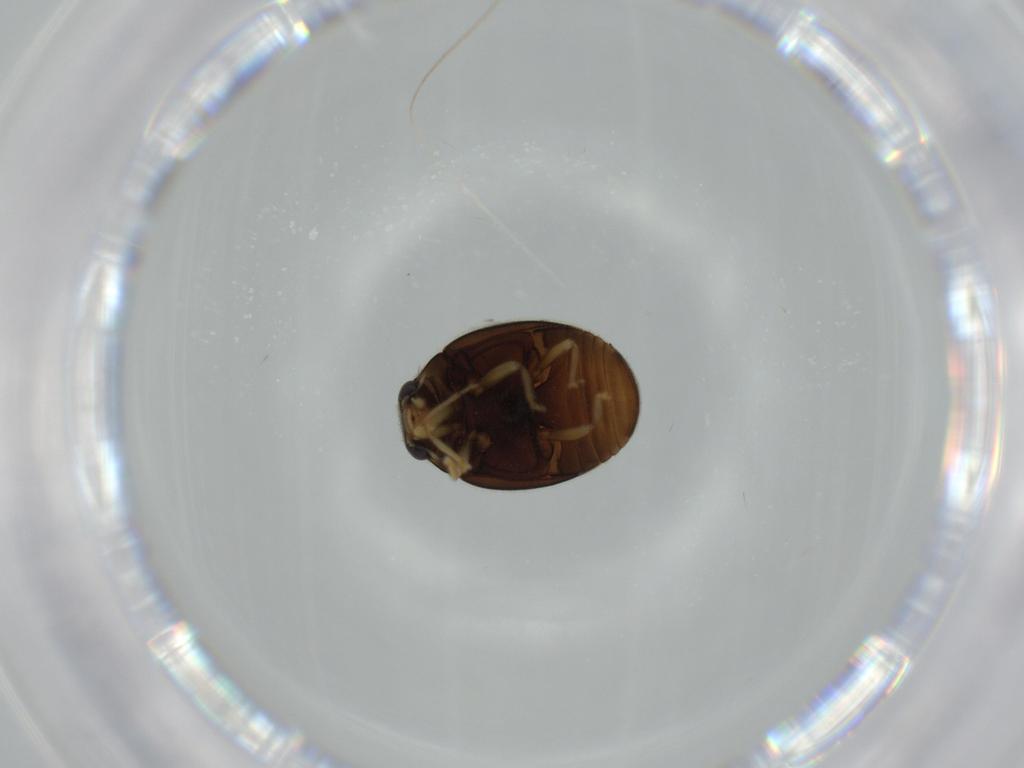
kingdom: Animalia
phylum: Arthropoda
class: Insecta
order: Coleoptera
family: Coccinellidae
